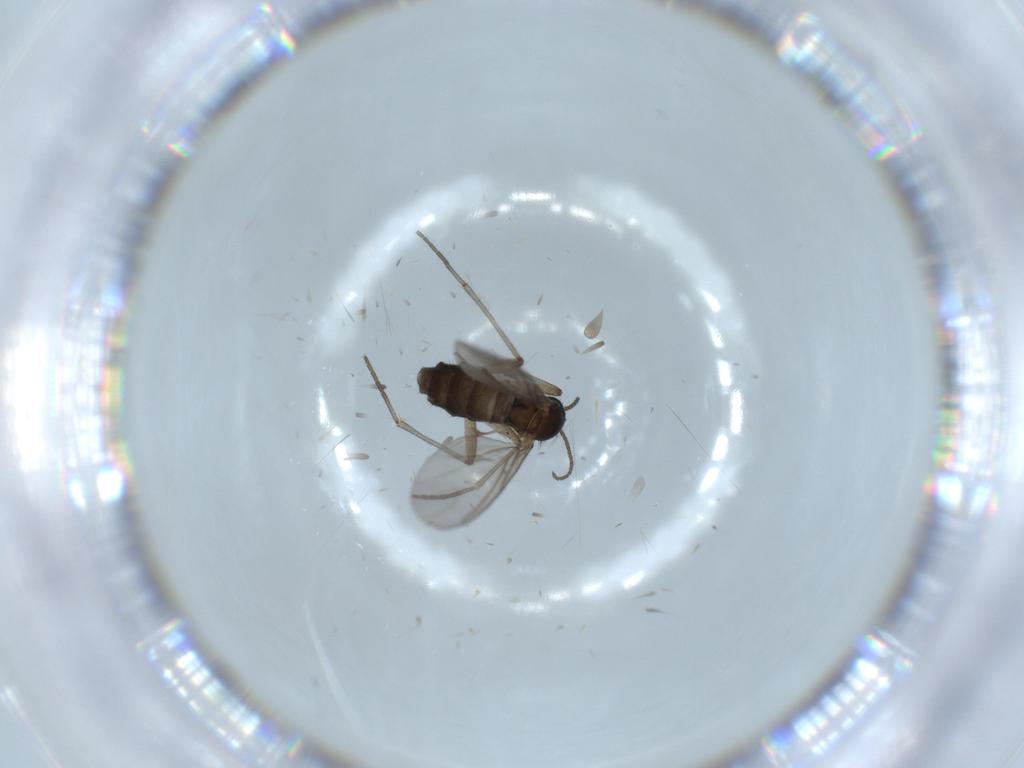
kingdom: Animalia
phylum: Arthropoda
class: Insecta
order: Diptera
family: Sciaridae
